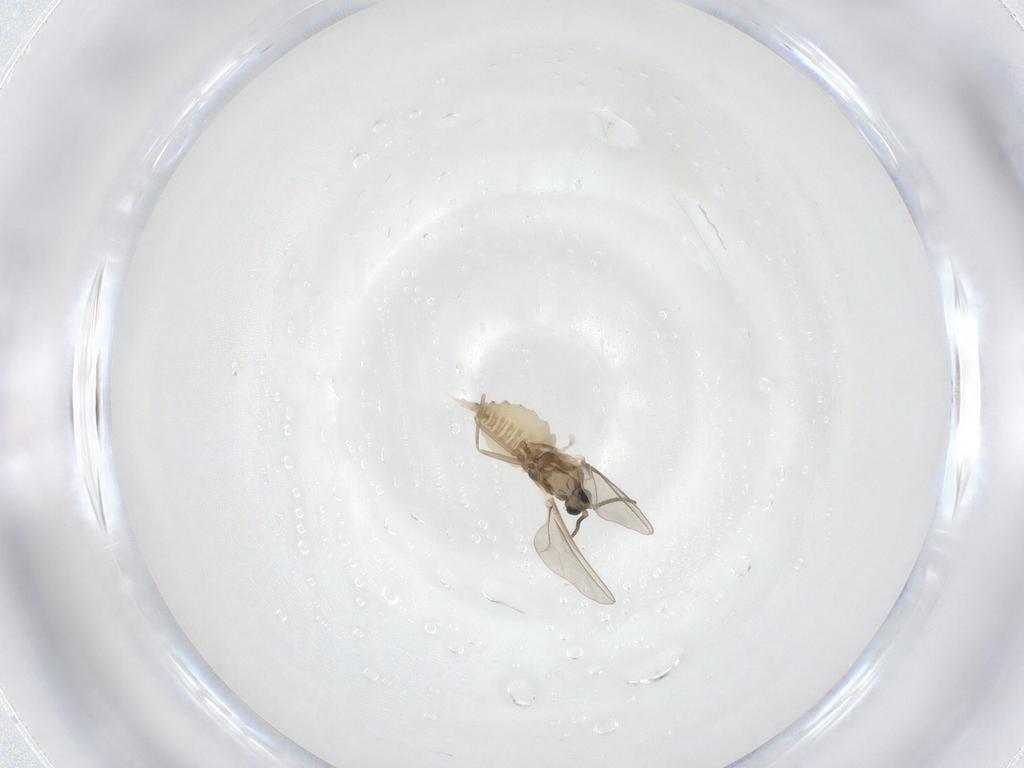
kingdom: Animalia
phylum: Arthropoda
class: Insecta
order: Diptera
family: Cecidomyiidae
